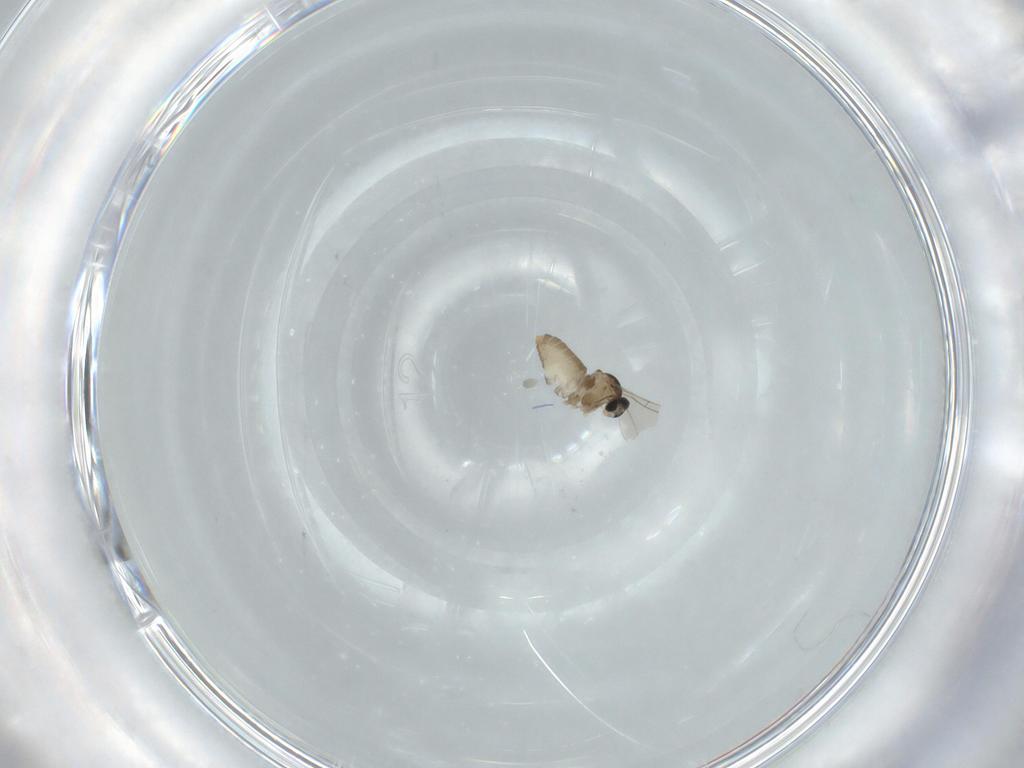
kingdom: Animalia
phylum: Arthropoda
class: Insecta
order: Diptera
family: Cecidomyiidae
